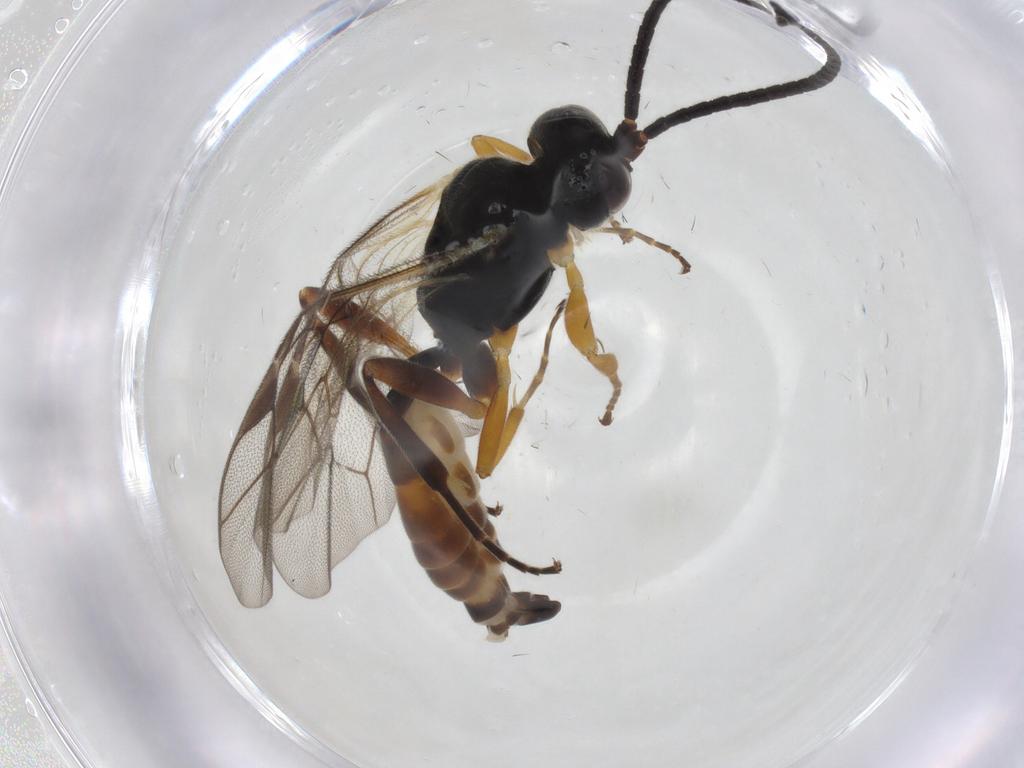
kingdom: Animalia
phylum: Arthropoda
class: Insecta
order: Hymenoptera
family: Ichneumonidae
